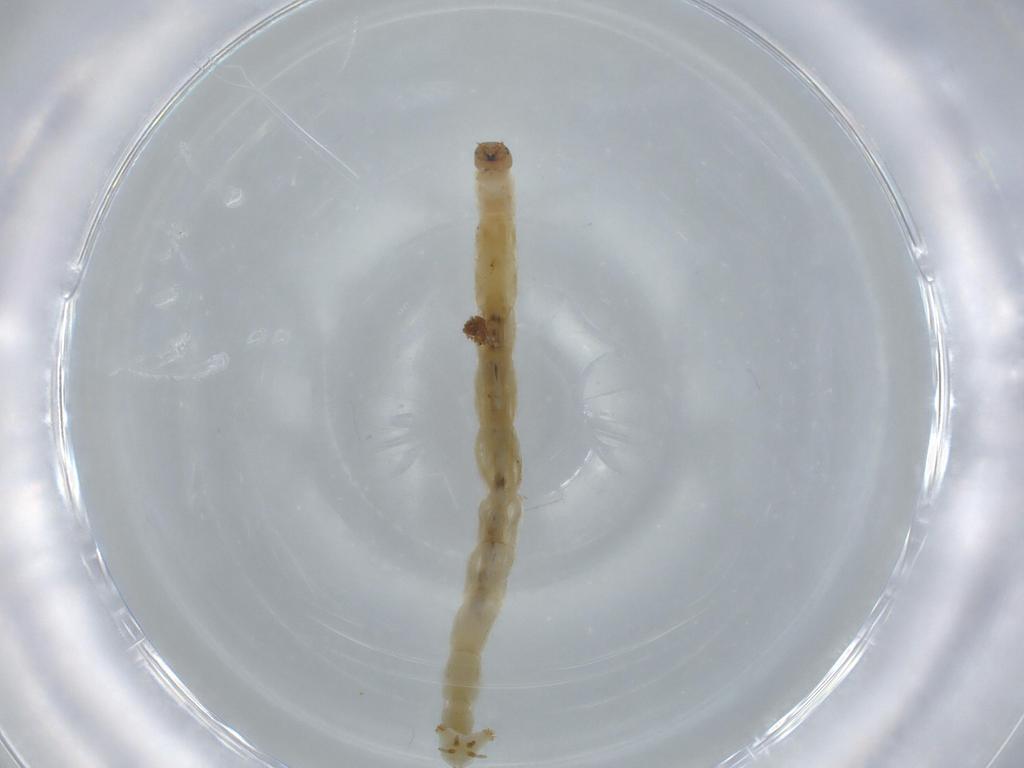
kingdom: Animalia
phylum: Arthropoda
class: Insecta
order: Diptera
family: Chironomidae
